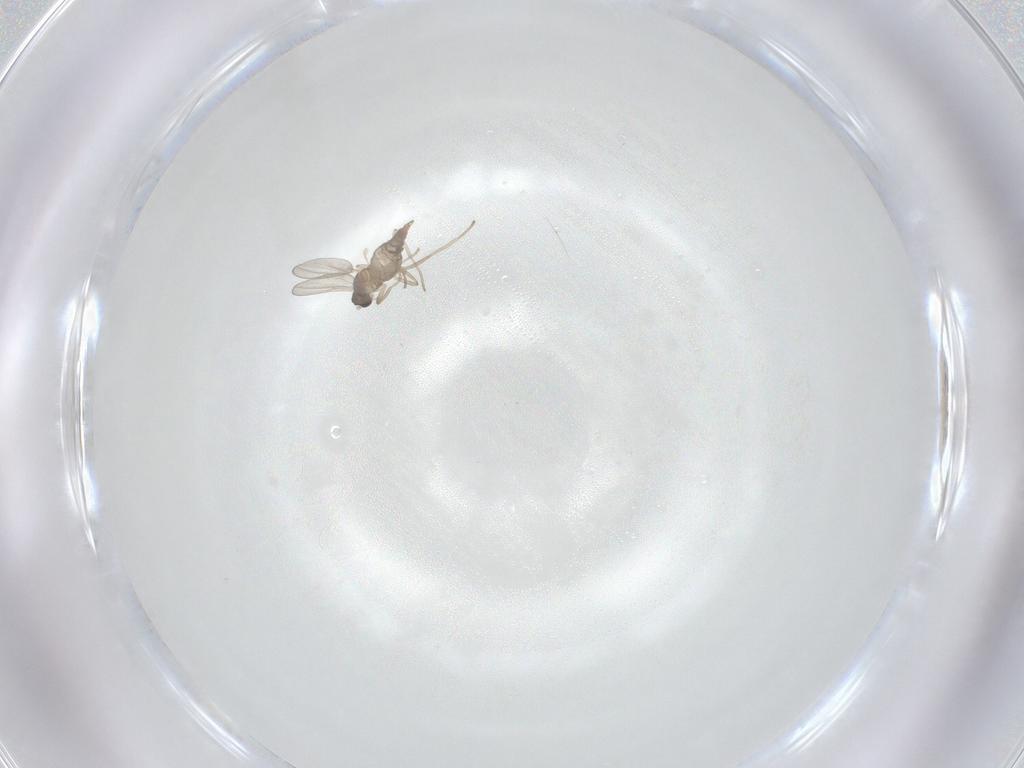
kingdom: Animalia
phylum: Arthropoda
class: Insecta
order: Diptera
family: Cecidomyiidae
